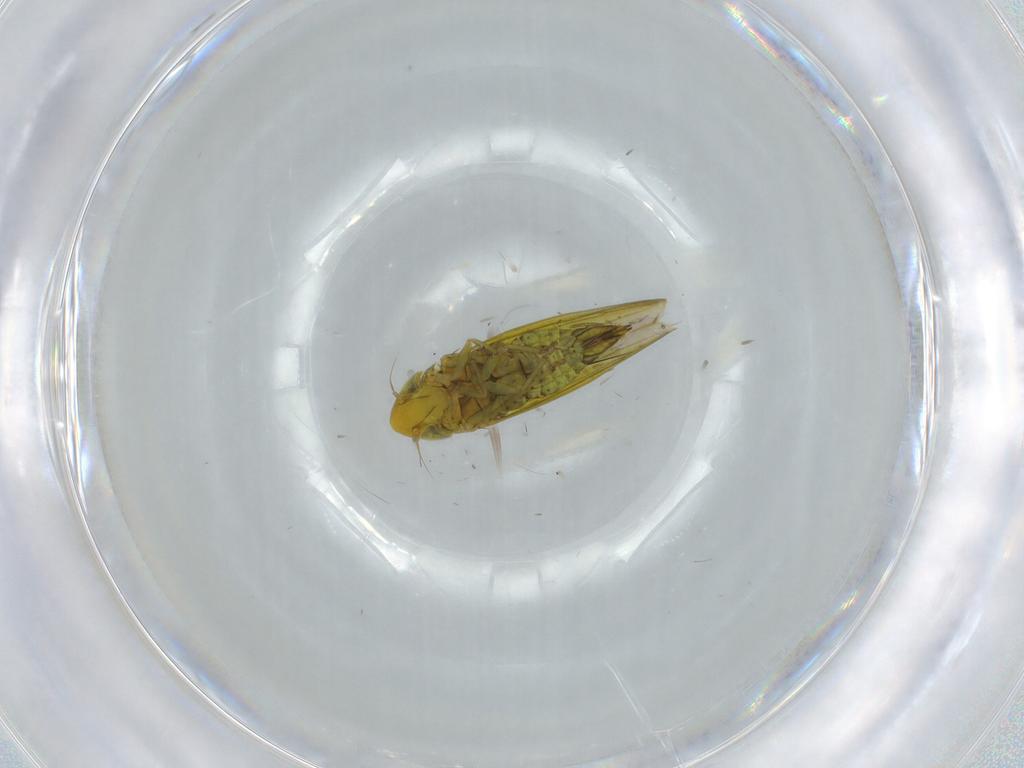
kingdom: Animalia
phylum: Arthropoda
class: Insecta
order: Hemiptera
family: Cicadellidae
